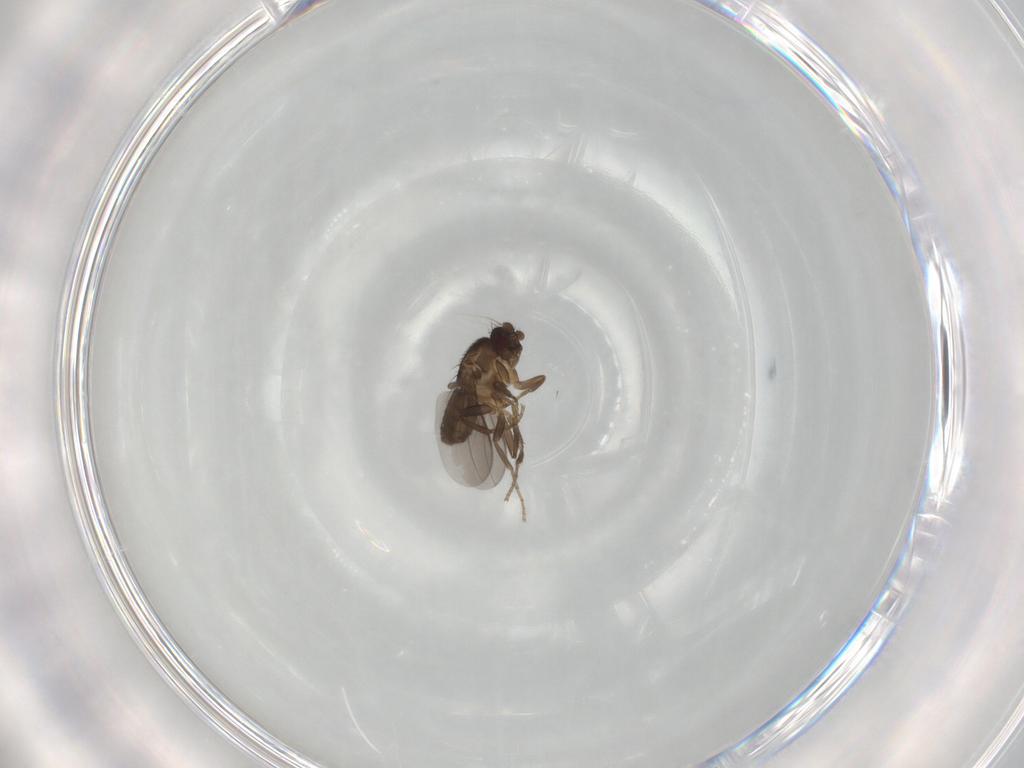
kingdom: Animalia
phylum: Arthropoda
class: Insecta
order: Diptera
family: Sphaeroceridae
